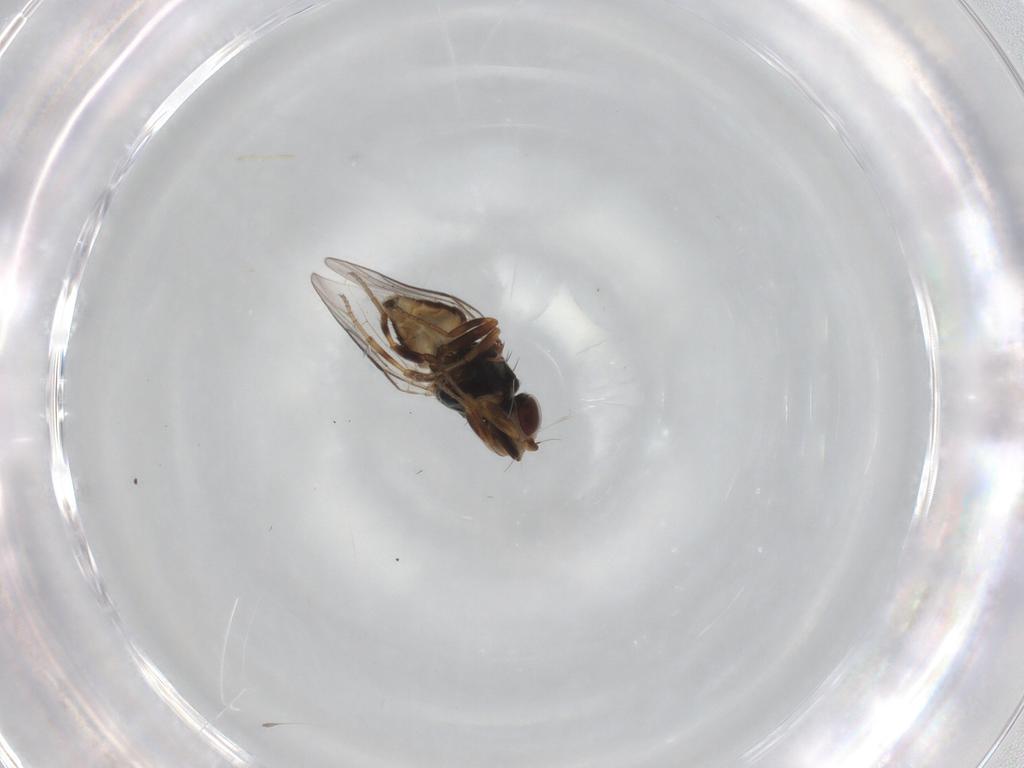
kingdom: Animalia
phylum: Arthropoda
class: Insecta
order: Diptera
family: Chloropidae
